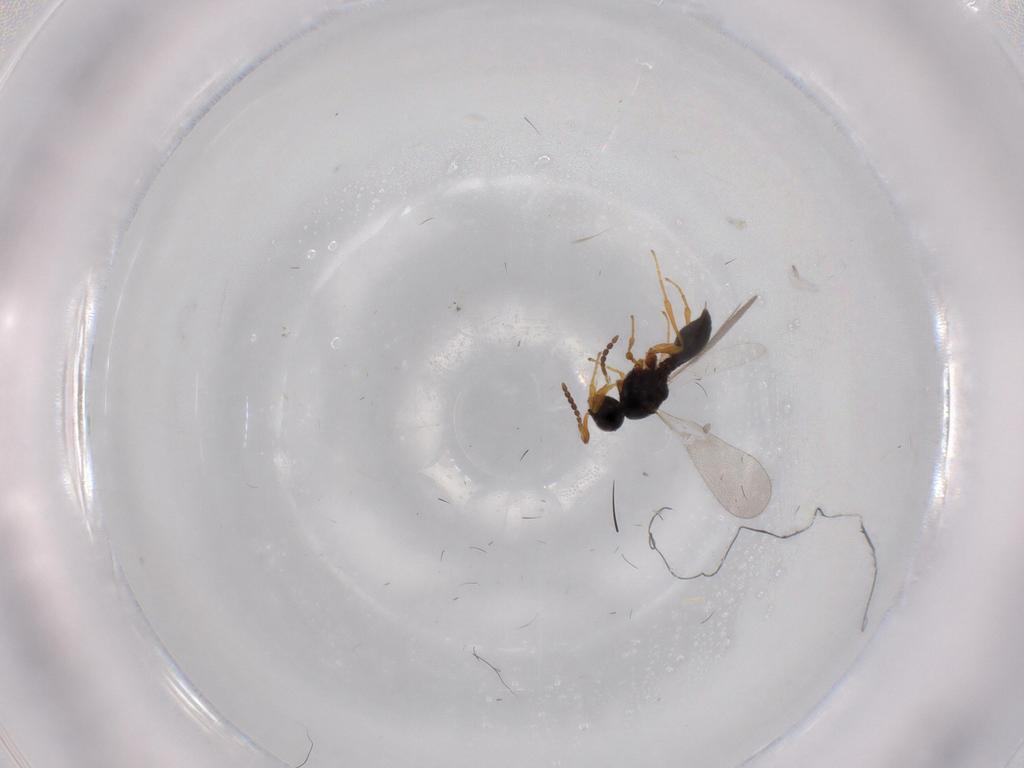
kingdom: Animalia
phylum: Arthropoda
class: Insecta
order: Diptera
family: Mythicomyiidae
